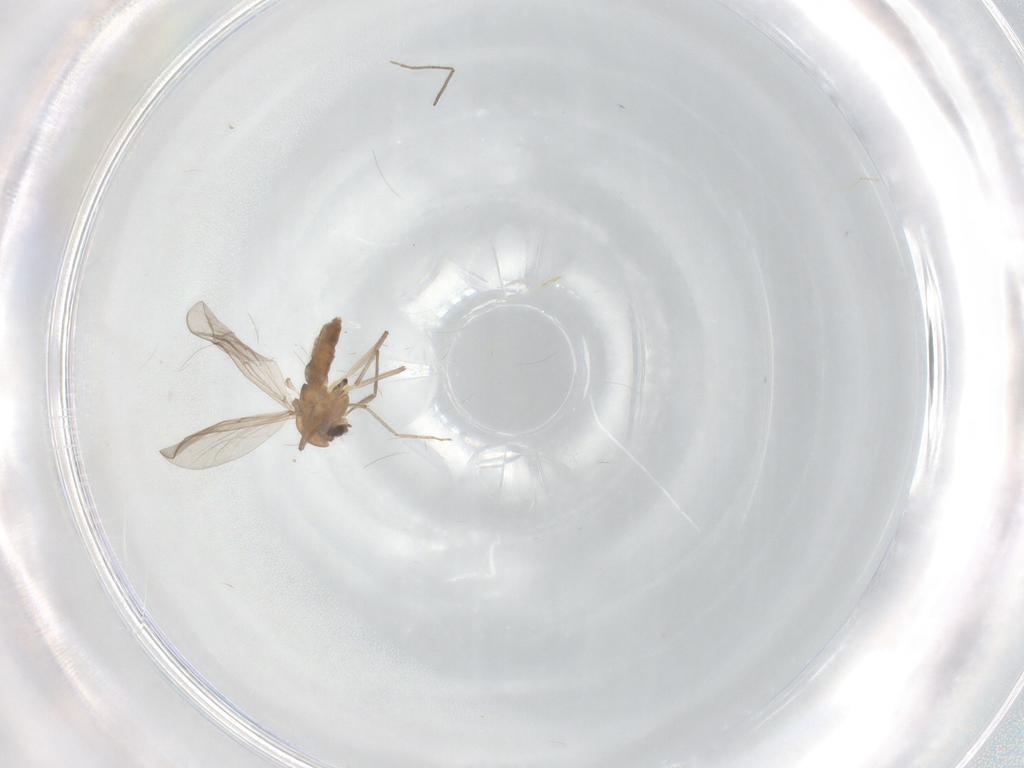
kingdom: Animalia
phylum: Arthropoda
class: Insecta
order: Diptera
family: Chironomidae
